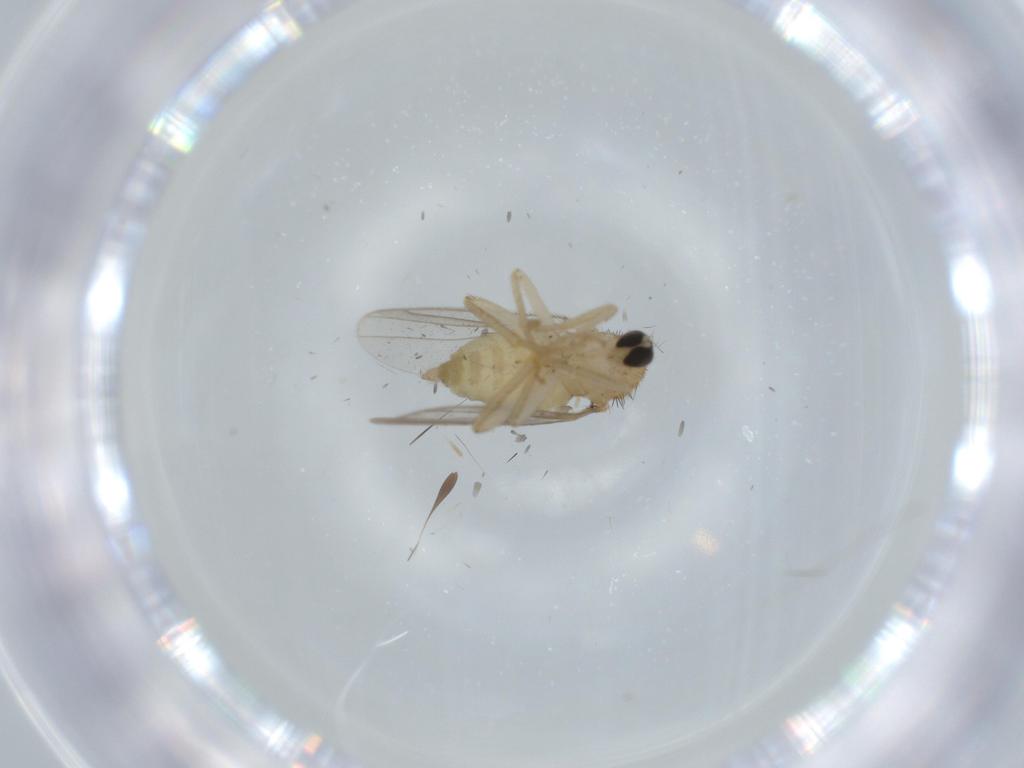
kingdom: Animalia
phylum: Arthropoda
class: Insecta
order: Diptera
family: Hybotidae
